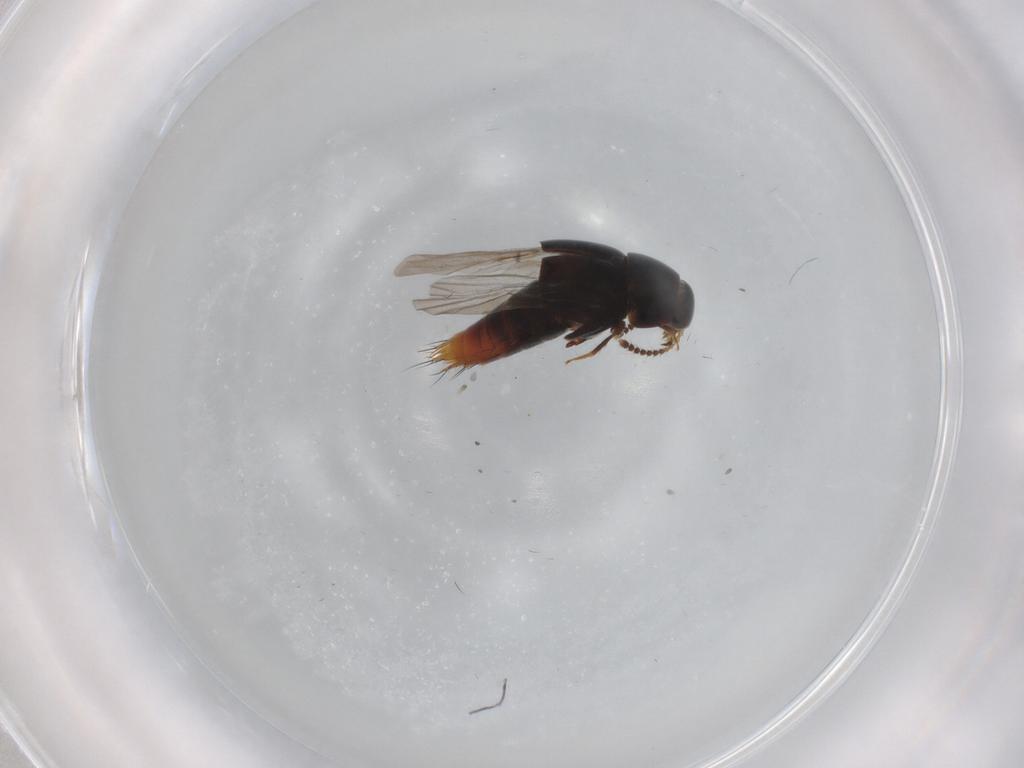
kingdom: Animalia
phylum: Arthropoda
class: Insecta
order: Coleoptera
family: Staphylinidae
